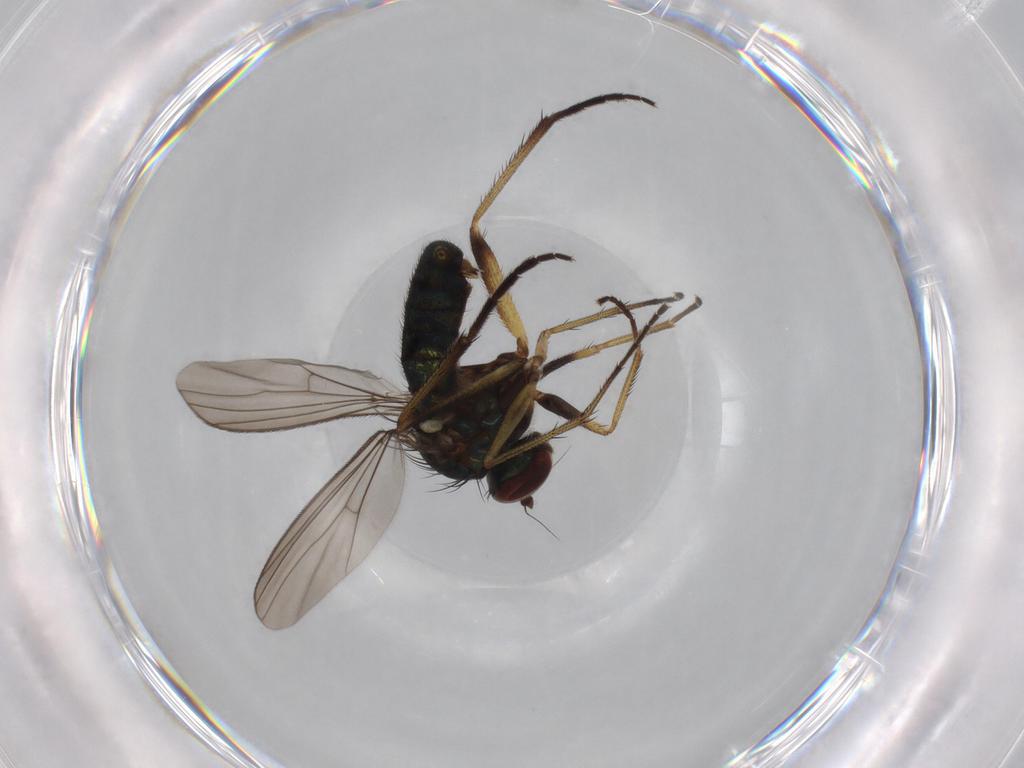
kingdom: Animalia
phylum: Arthropoda
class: Insecta
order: Diptera
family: Dolichopodidae
